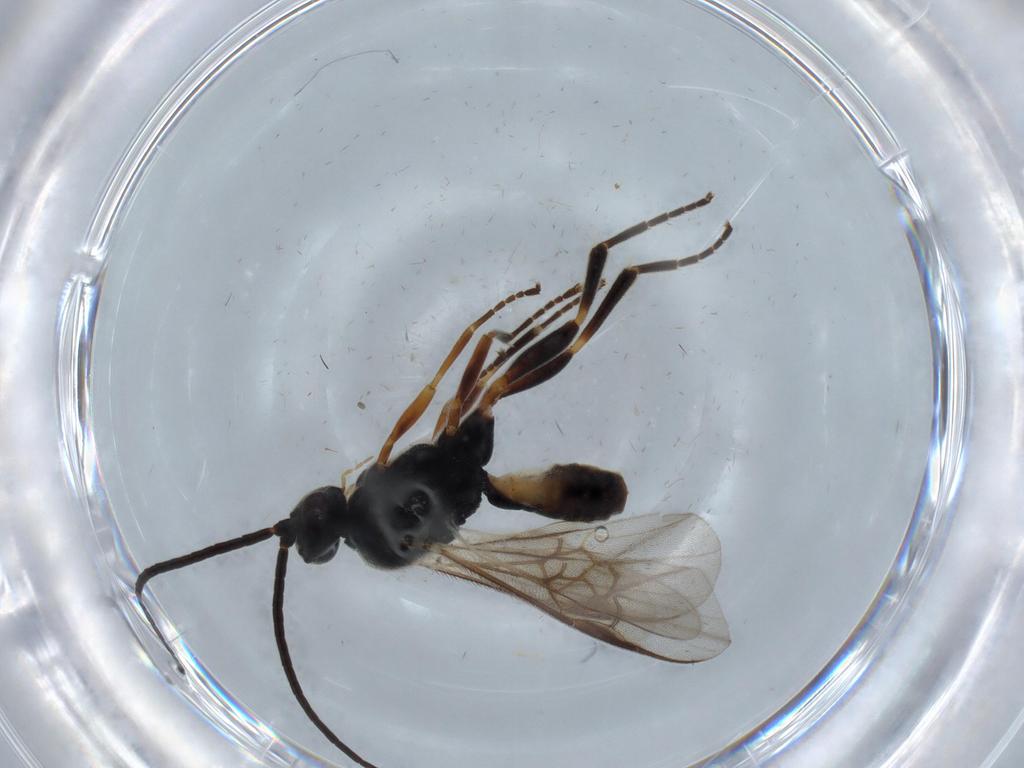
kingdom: Animalia
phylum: Arthropoda
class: Insecta
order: Hymenoptera
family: Braconidae
